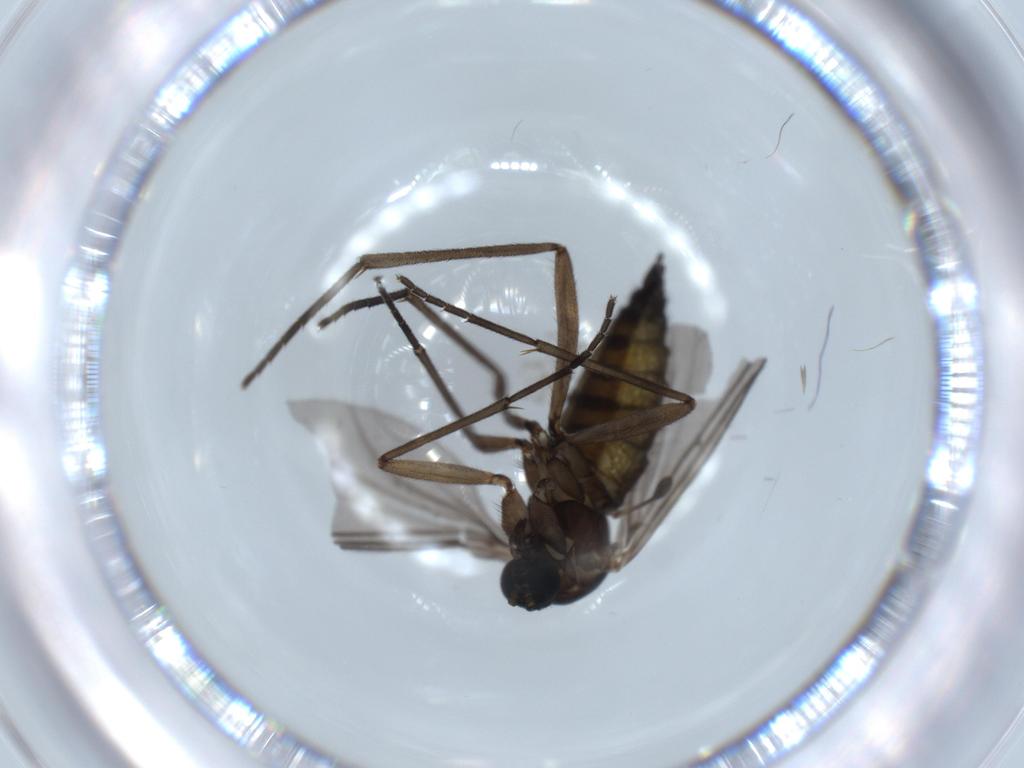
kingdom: Animalia
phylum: Arthropoda
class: Insecta
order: Diptera
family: Sciaridae
